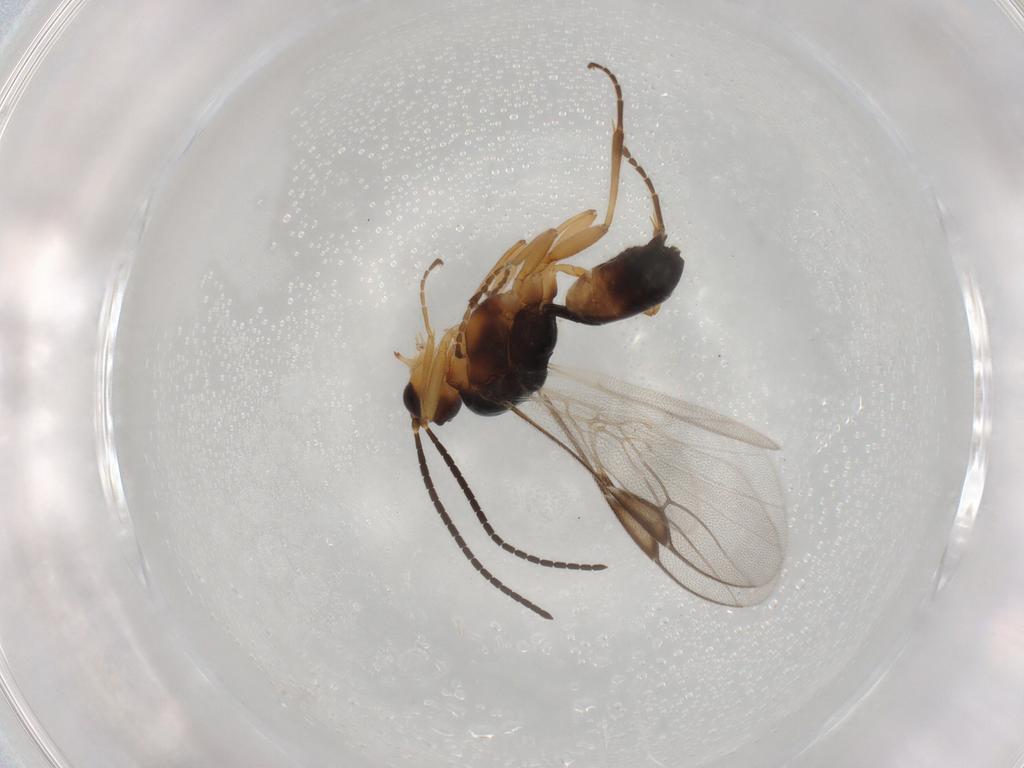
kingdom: Animalia
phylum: Arthropoda
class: Insecta
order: Hymenoptera
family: Braconidae
